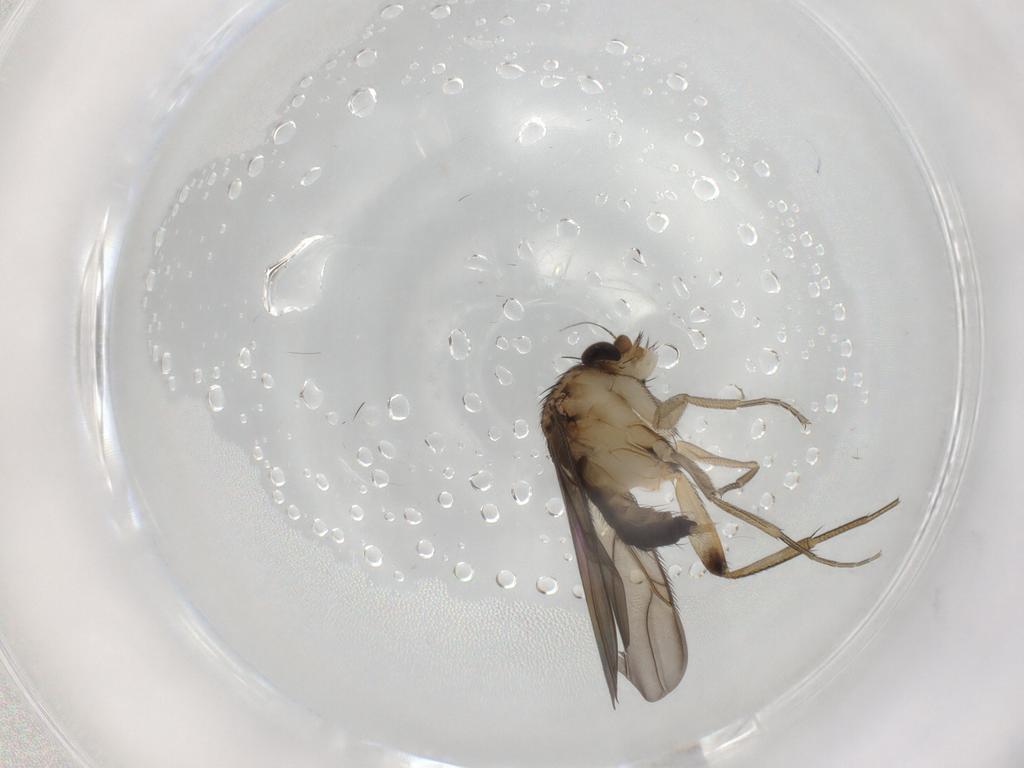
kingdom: Animalia
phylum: Arthropoda
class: Insecta
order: Diptera
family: Phoridae
